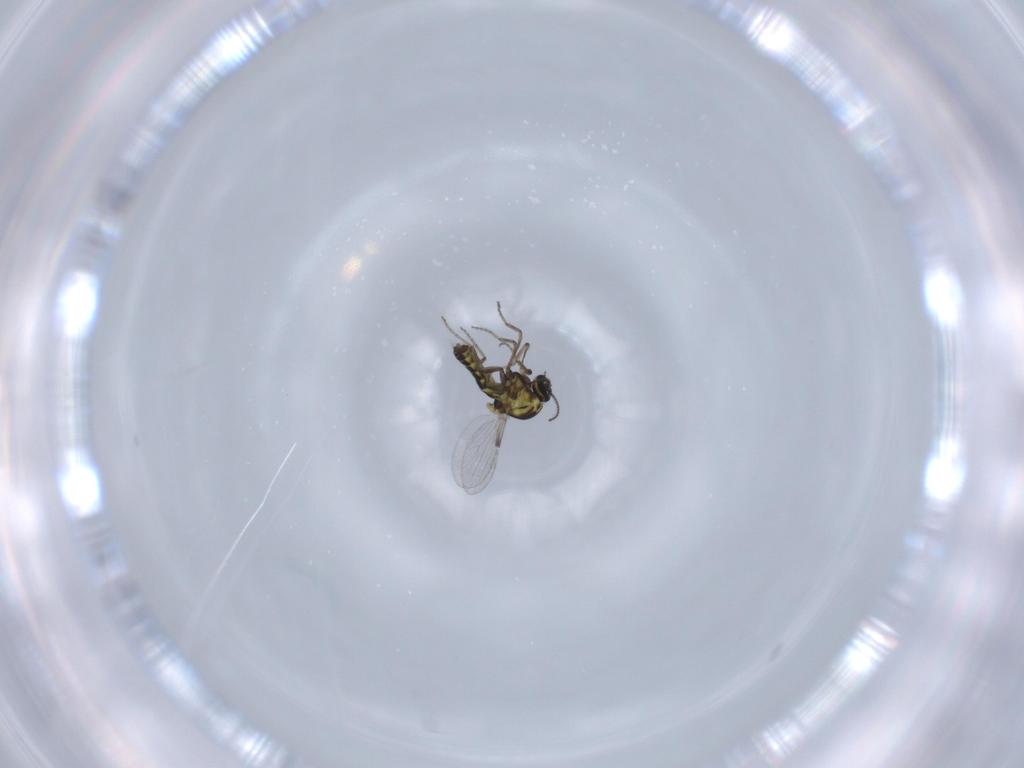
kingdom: Animalia
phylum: Arthropoda
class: Insecta
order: Diptera
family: Ceratopogonidae
